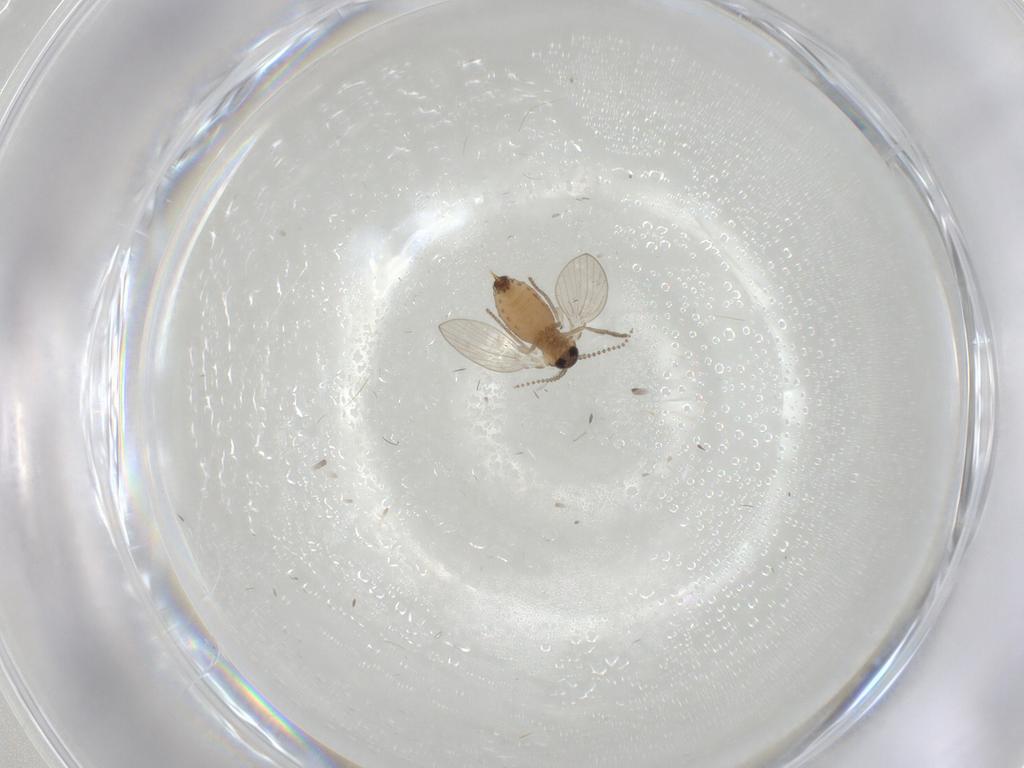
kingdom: Animalia
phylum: Arthropoda
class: Insecta
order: Diptera
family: Psychodidae
